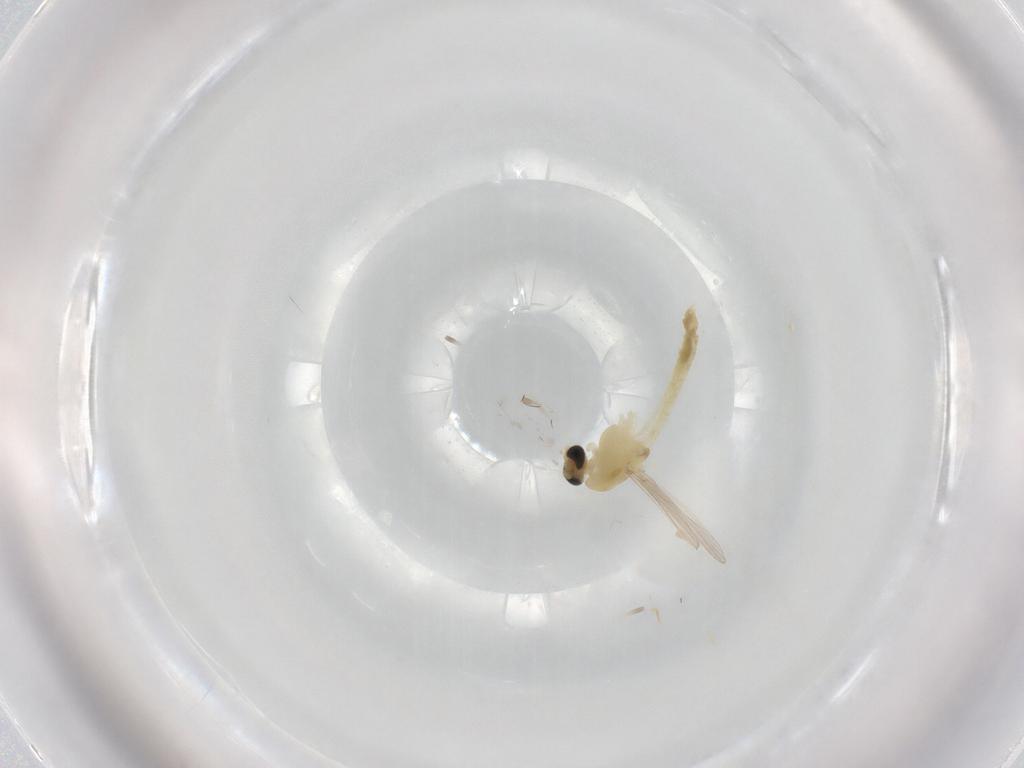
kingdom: Animalia
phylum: Arthropoda
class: Insecta
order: Diptera
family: Chironomidae
